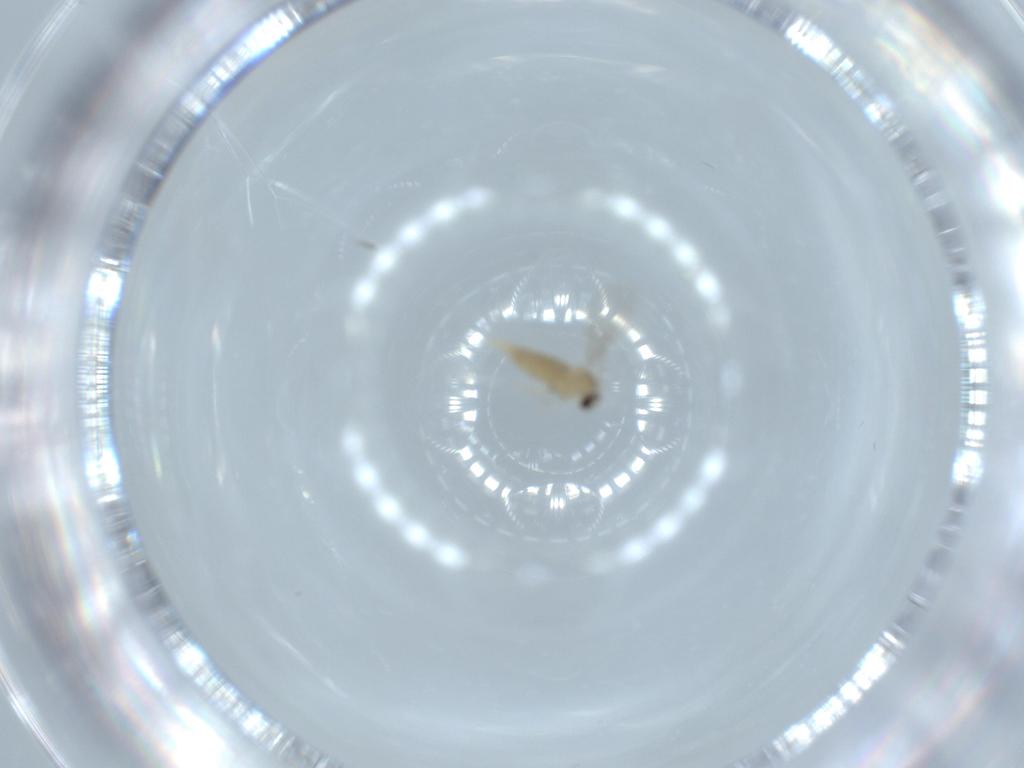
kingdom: Animalia
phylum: Arthropoda
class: Insecta
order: Diptera
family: Cecidomyiidae
